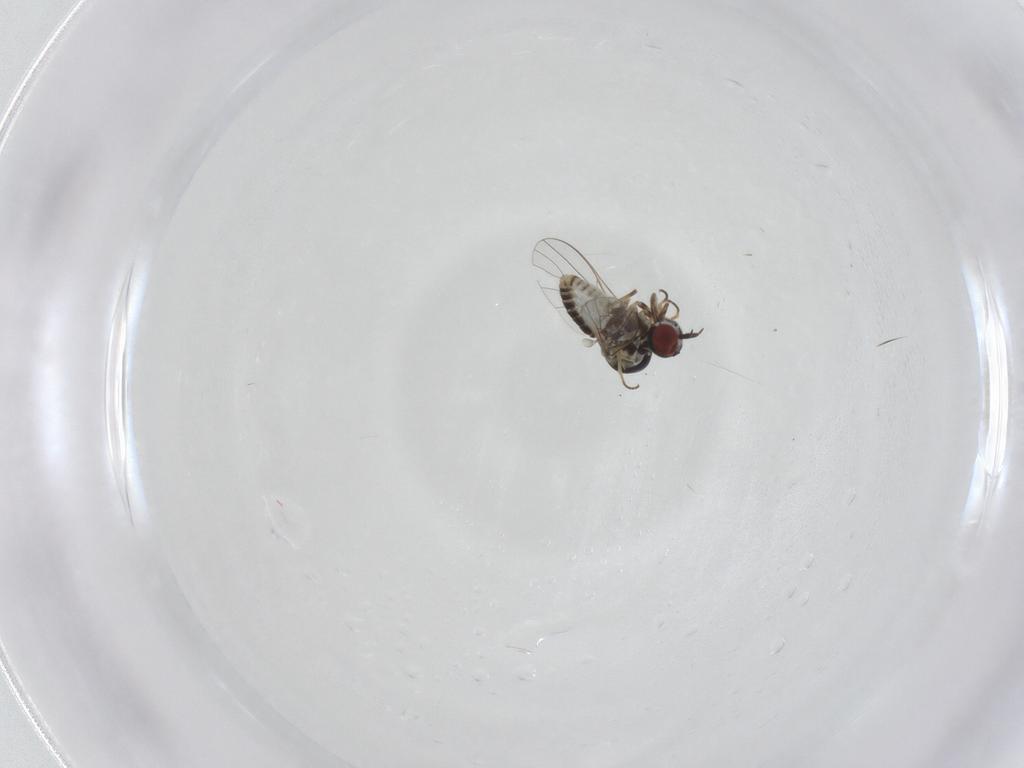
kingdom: Animalia
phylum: Arthropoda
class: Insecta
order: Diptera
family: Mythicomyiidae
